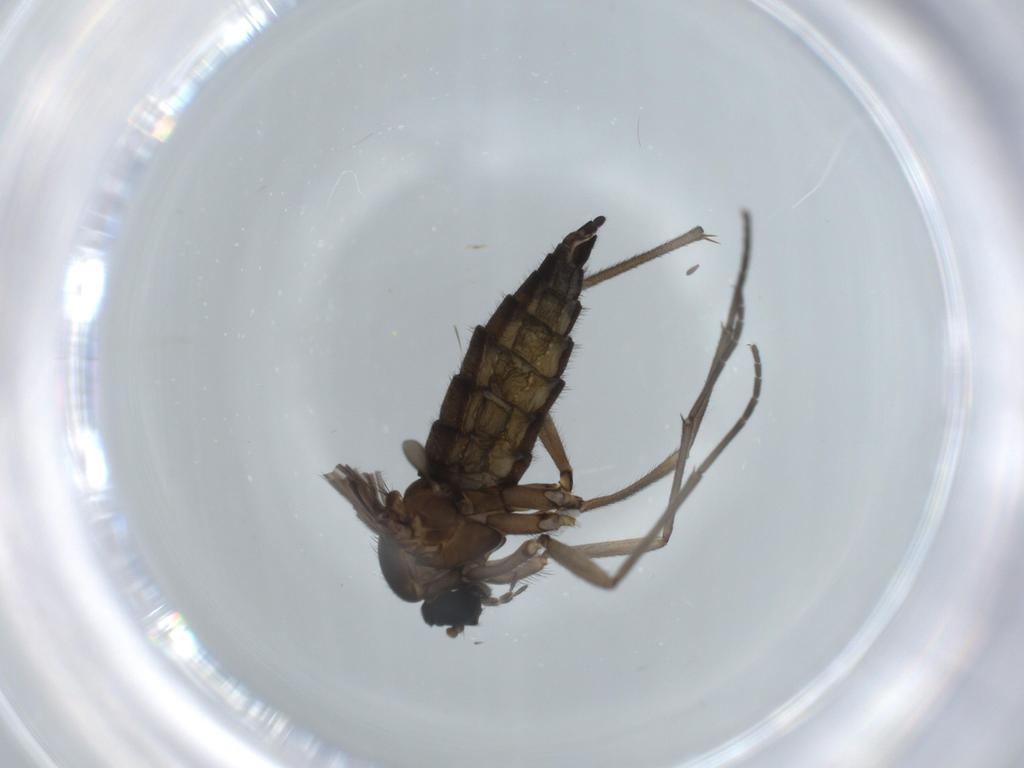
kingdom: Animalia
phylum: Arthropoda
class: Insecta
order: Diptera
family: Sciaridae
